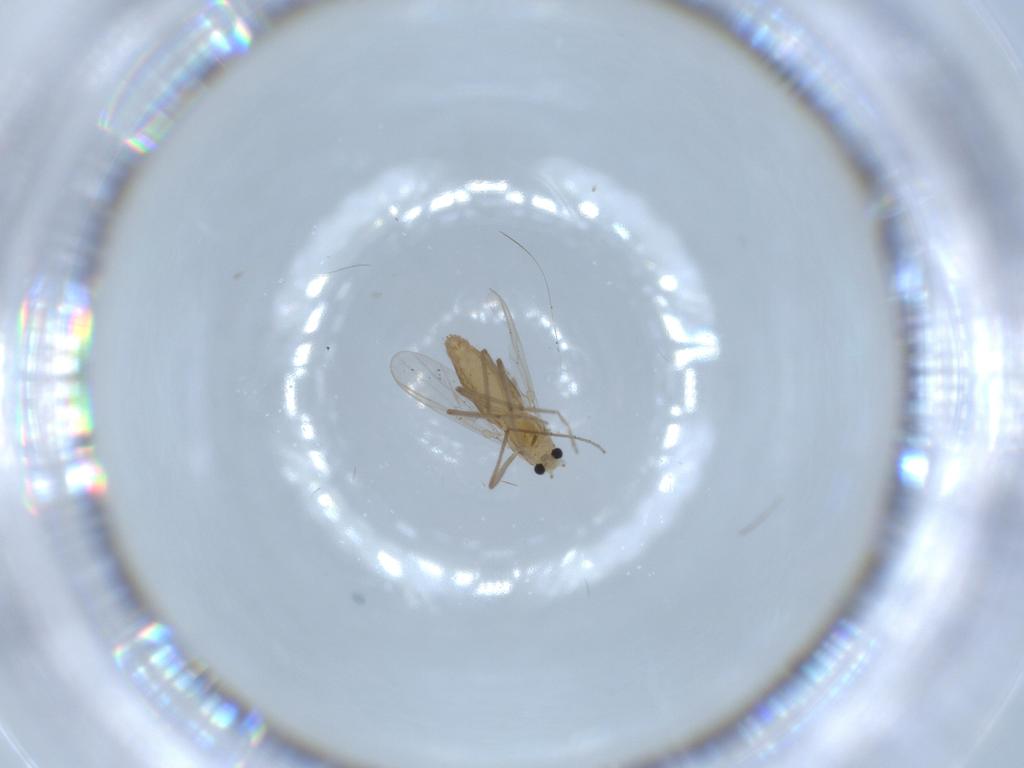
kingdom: Animalia
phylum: Arthropoda
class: Insecta
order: Diptera
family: Chironomidae
